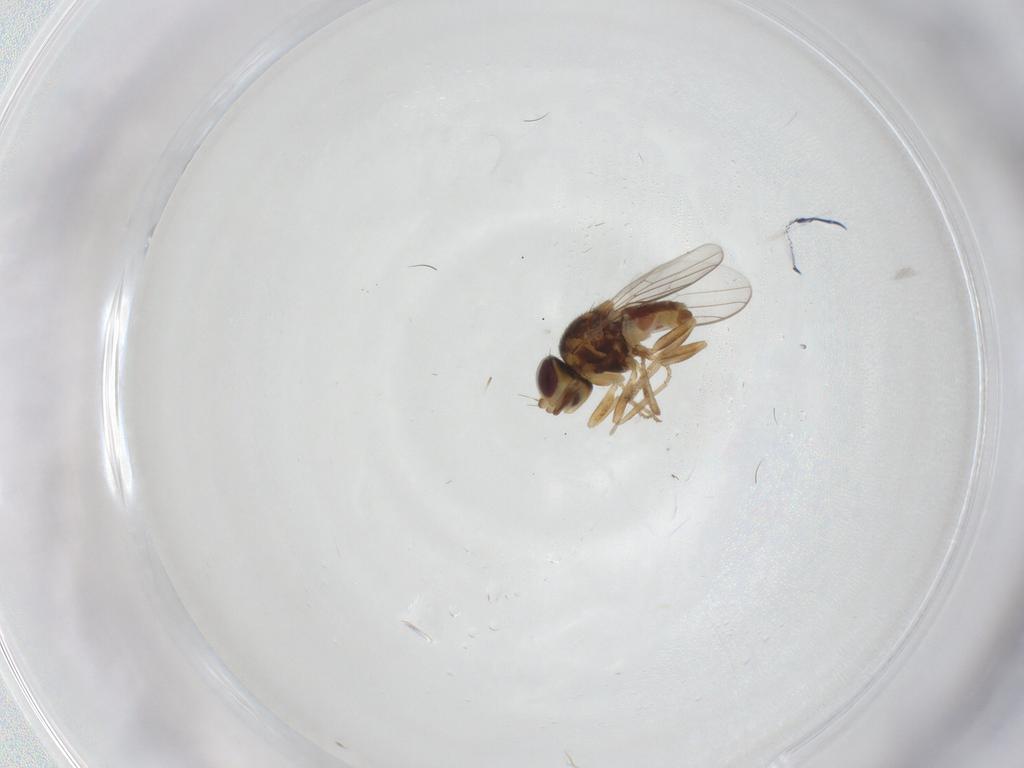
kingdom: Animalia
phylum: Arthropoda
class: Insecta
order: Diptera
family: Chloropidae
